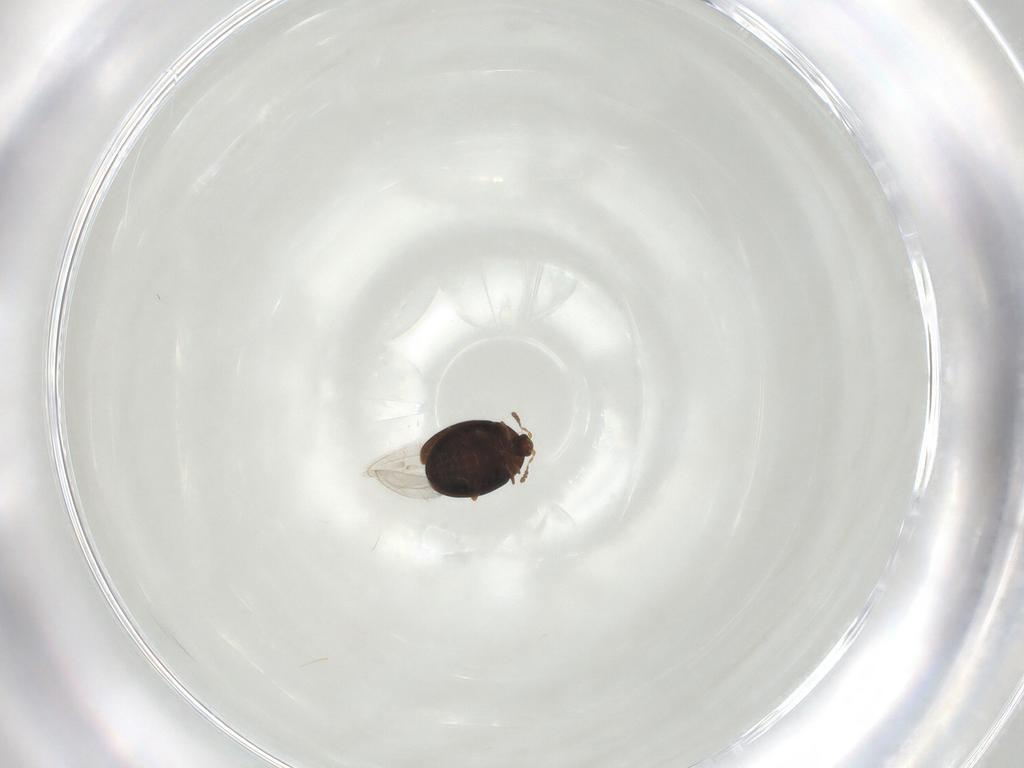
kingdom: Animalia
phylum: Arthropoda
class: Insecta
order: Coleoptera
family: Corylophidae
